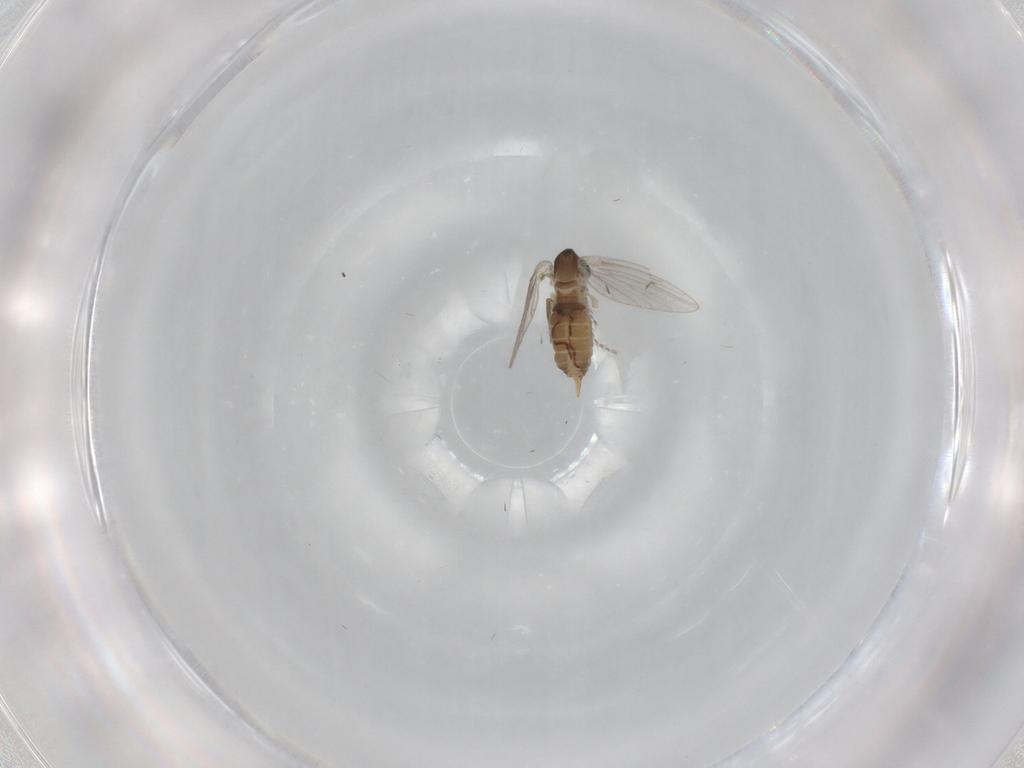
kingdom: Animalia
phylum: Arthropoda
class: Insecta
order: Diptera
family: Psychodidae
